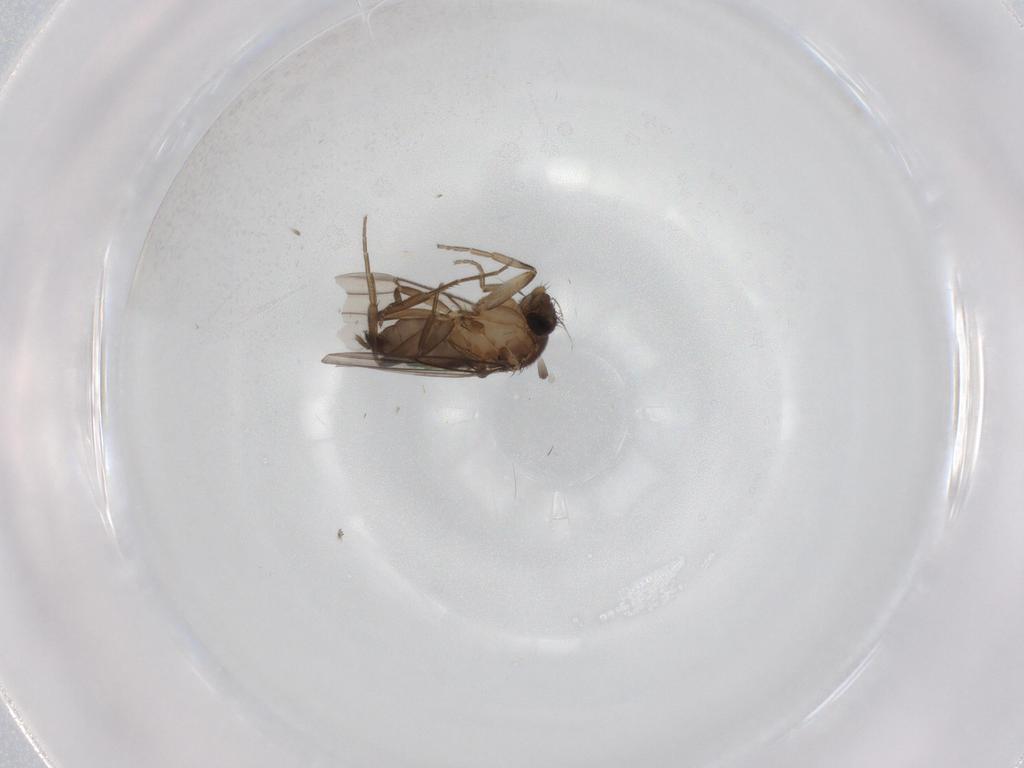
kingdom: Animalia
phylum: Arthropoda
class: Insecta
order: Diptera
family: Phoridae
